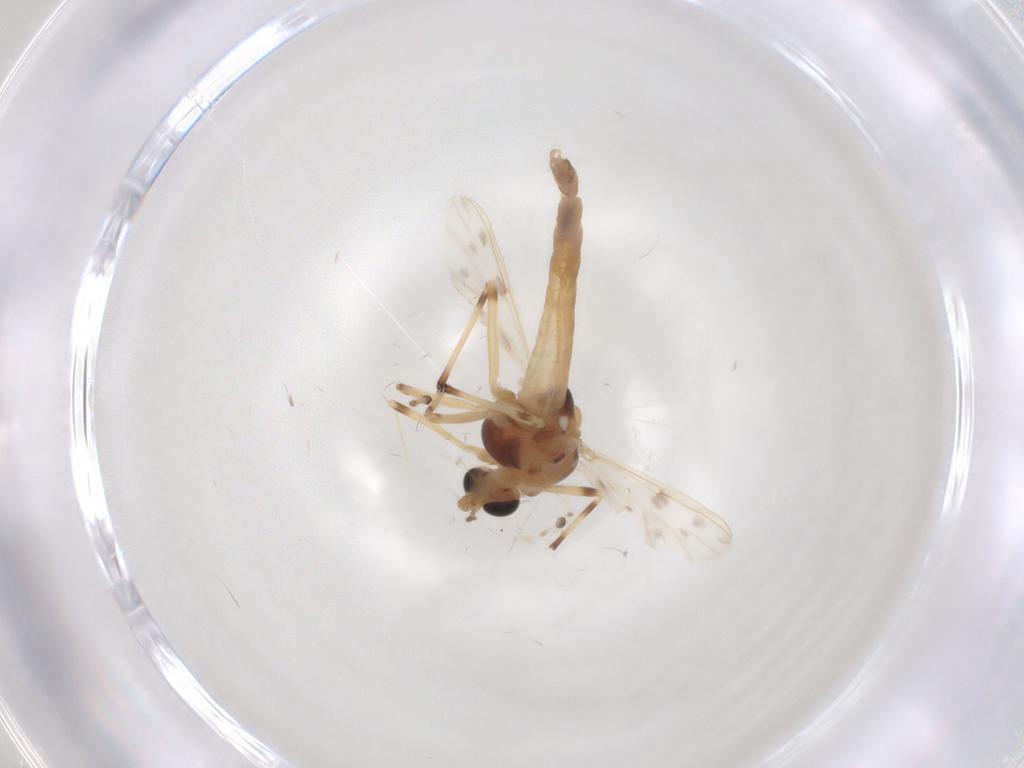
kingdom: Animalia
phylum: Arthropoda
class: Insecta
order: Diptera
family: Chironomidae
